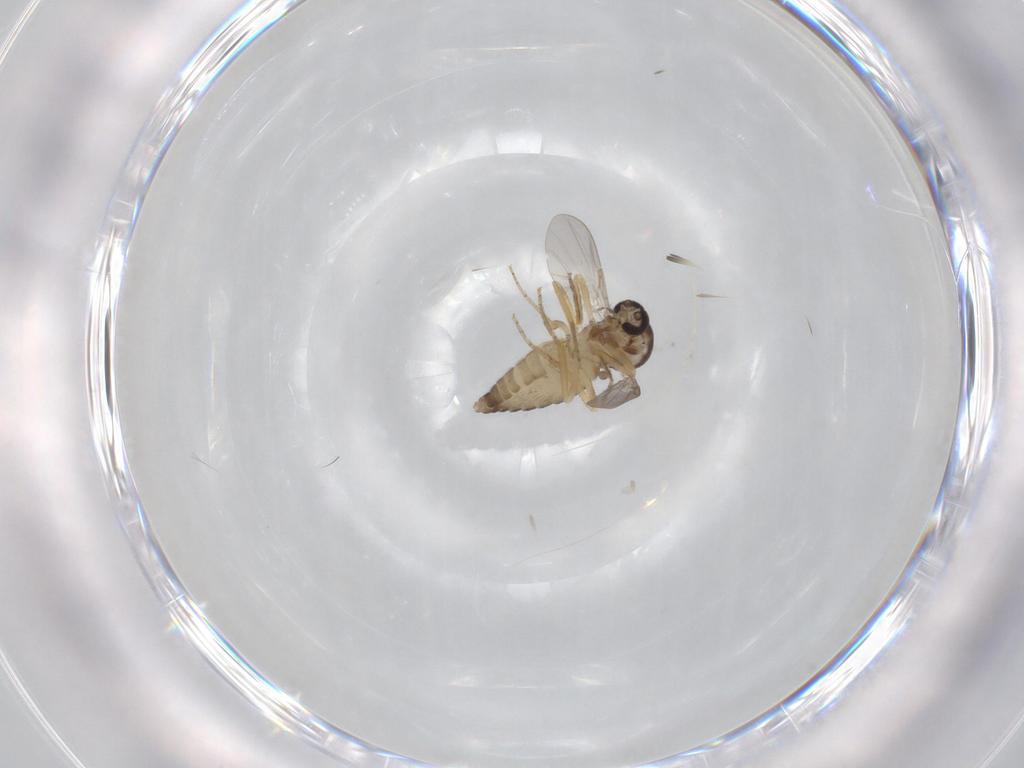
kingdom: Animalia
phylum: Arthropoda
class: Insecta
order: Diptera
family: Ceratopogonidae
